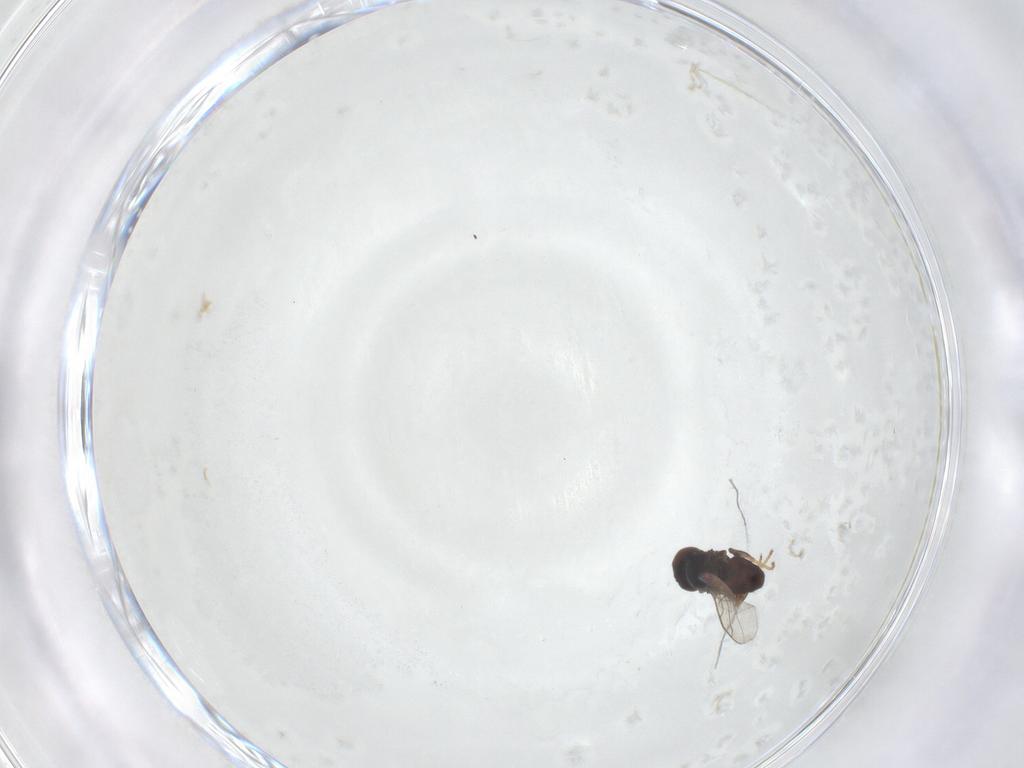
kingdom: Animalia
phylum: Arthropoda
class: Insecta
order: Diptera
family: Chloropidae
